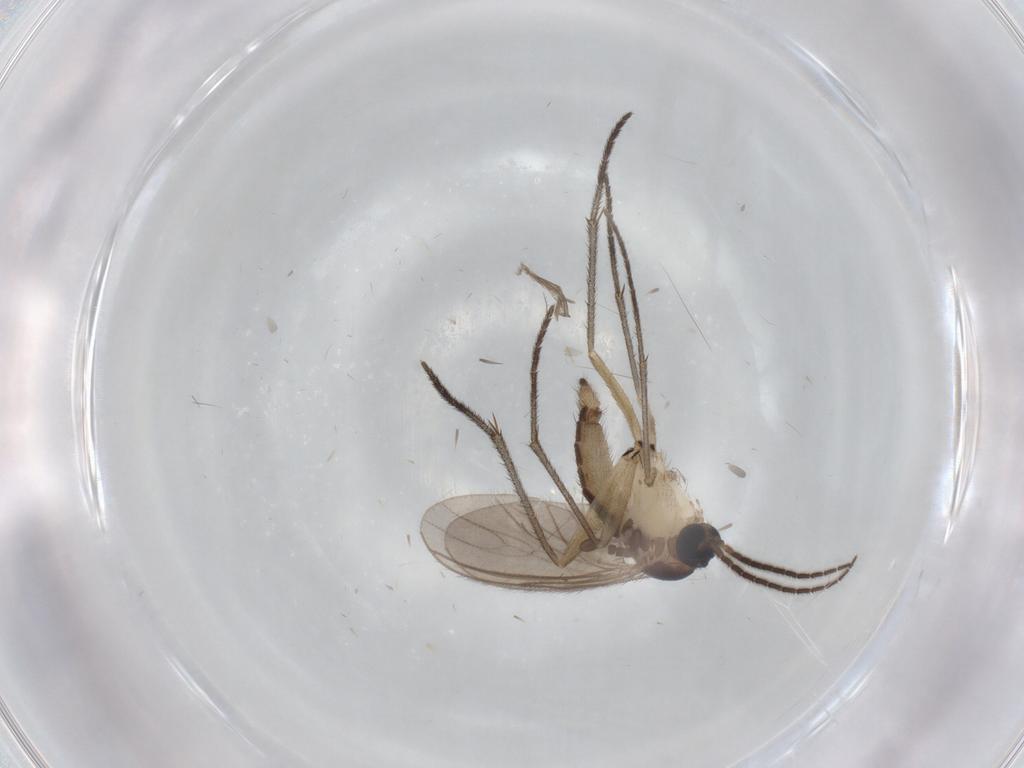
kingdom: Animalia
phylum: Arthropoda
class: Insecta
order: Diptera
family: Sciaridae
